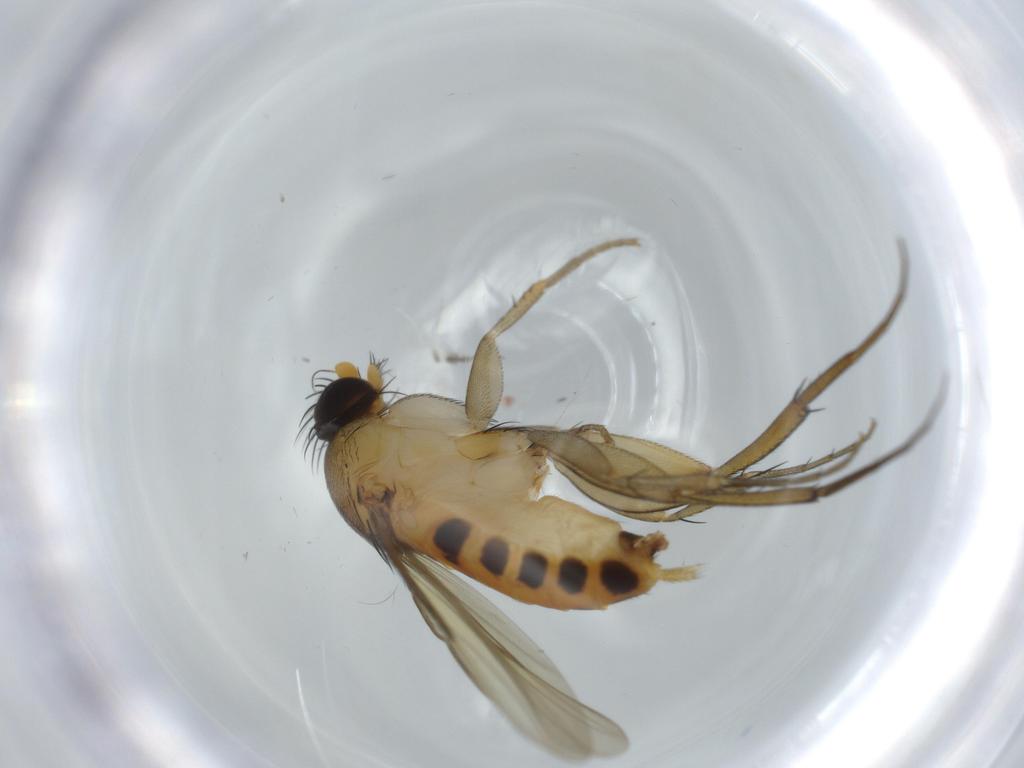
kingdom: Animalia
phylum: Arthropoda
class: Insecta
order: Diptera
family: Phoridae
